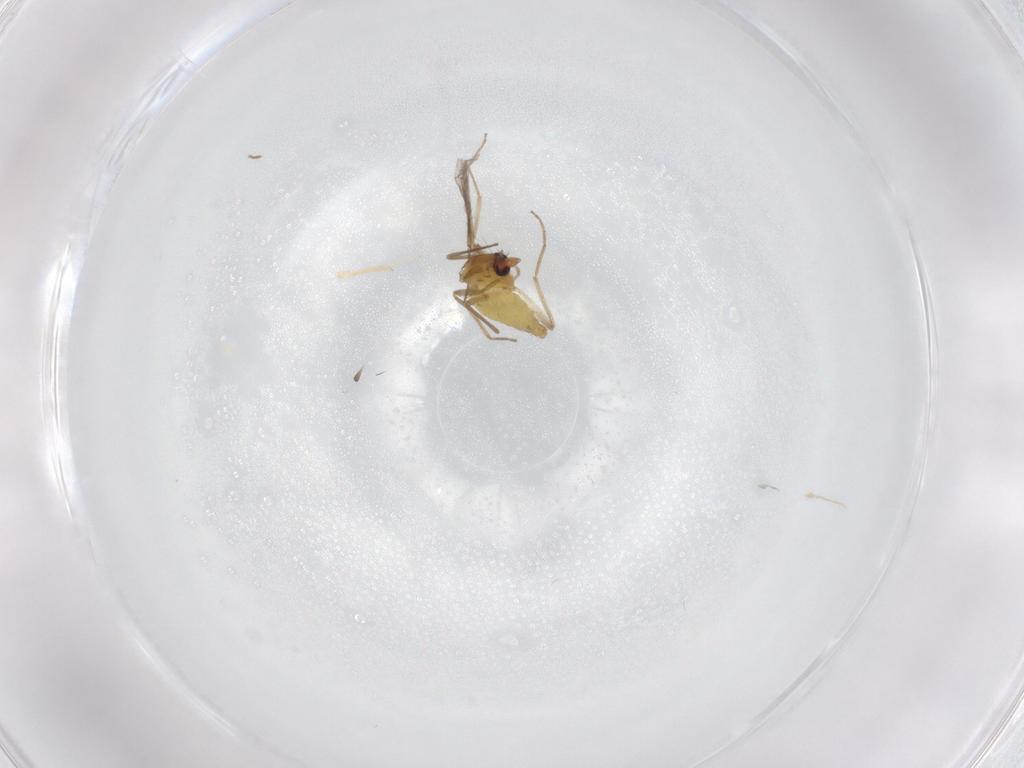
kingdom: Animalia
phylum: Arthropoda
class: Insecta
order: Diptera
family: Chironomidae
